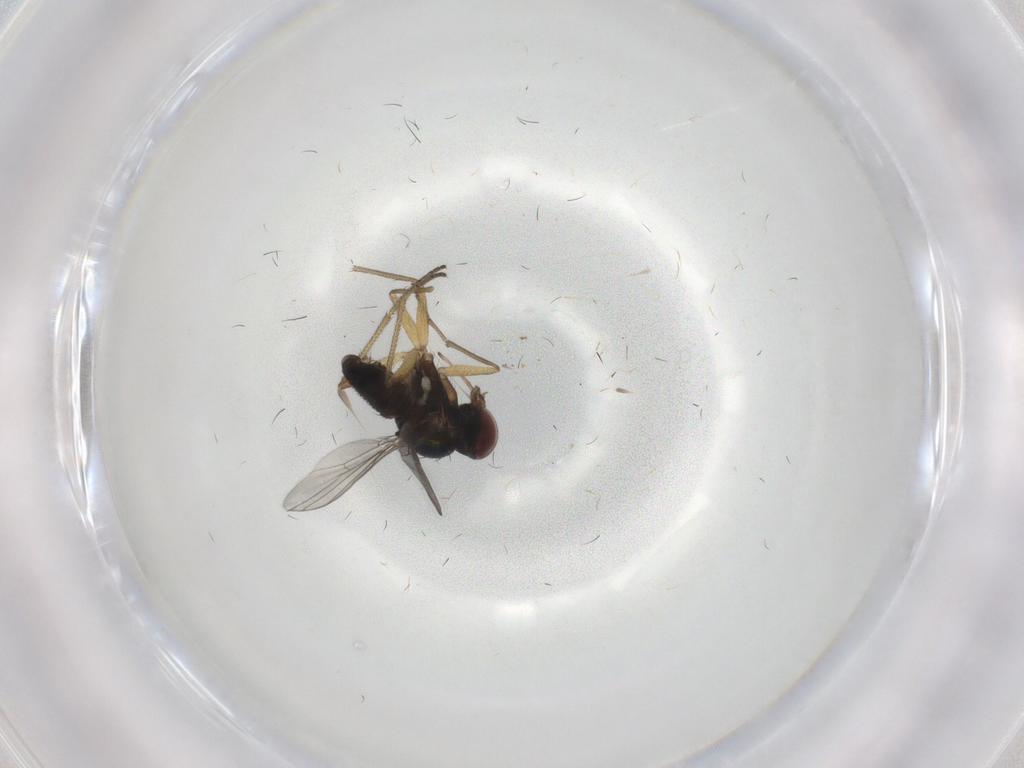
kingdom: Animalia
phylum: Arthropoda
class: Insecta
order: Diptera
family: Dolichopodidae
